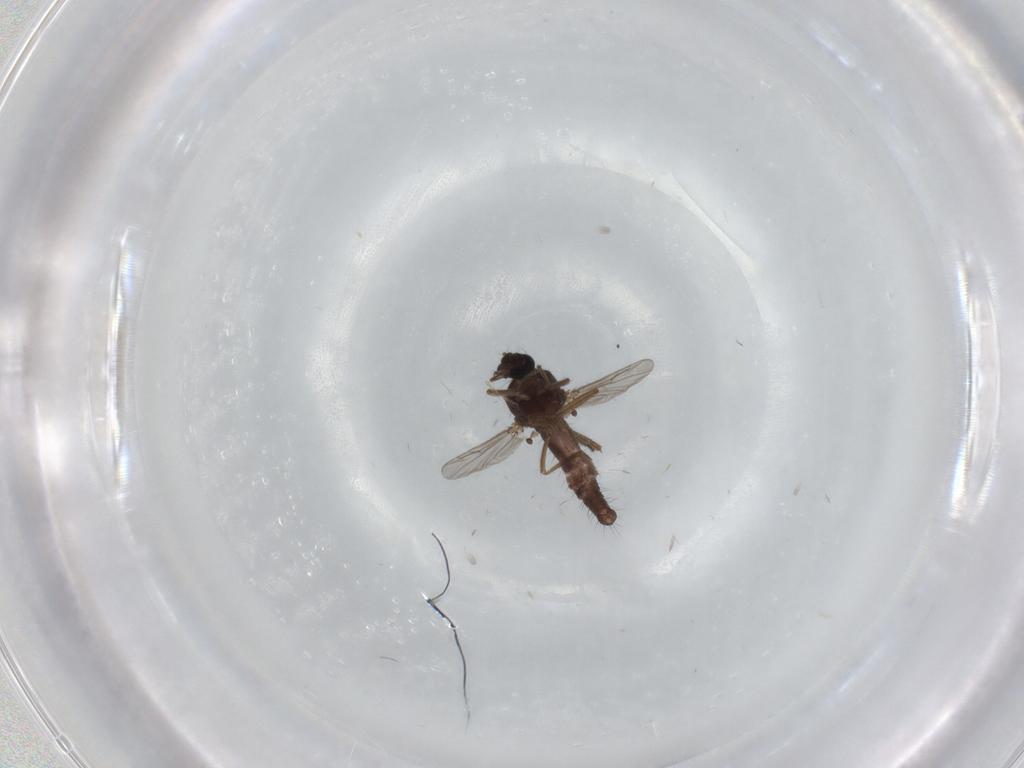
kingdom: Animalia
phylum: Arthropoda
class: Insecta
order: Diptera
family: Ceratopogonidae
